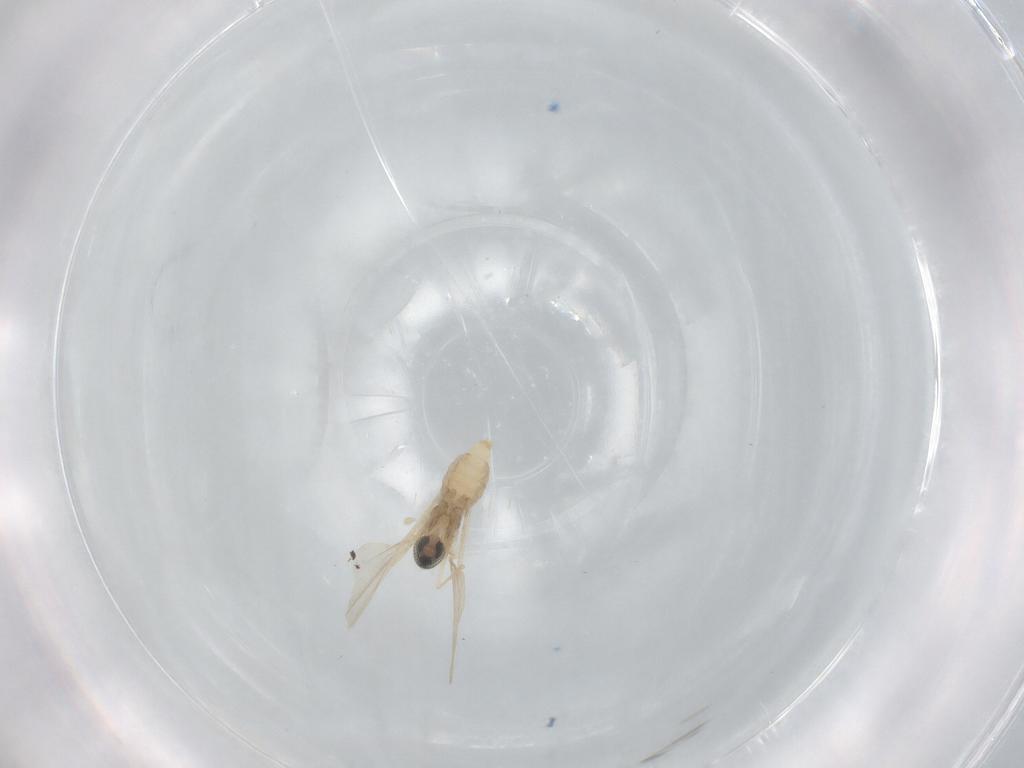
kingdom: Animalia
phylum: Arthropoda
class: Insecta
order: Diptera
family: Cecidomyiidae
